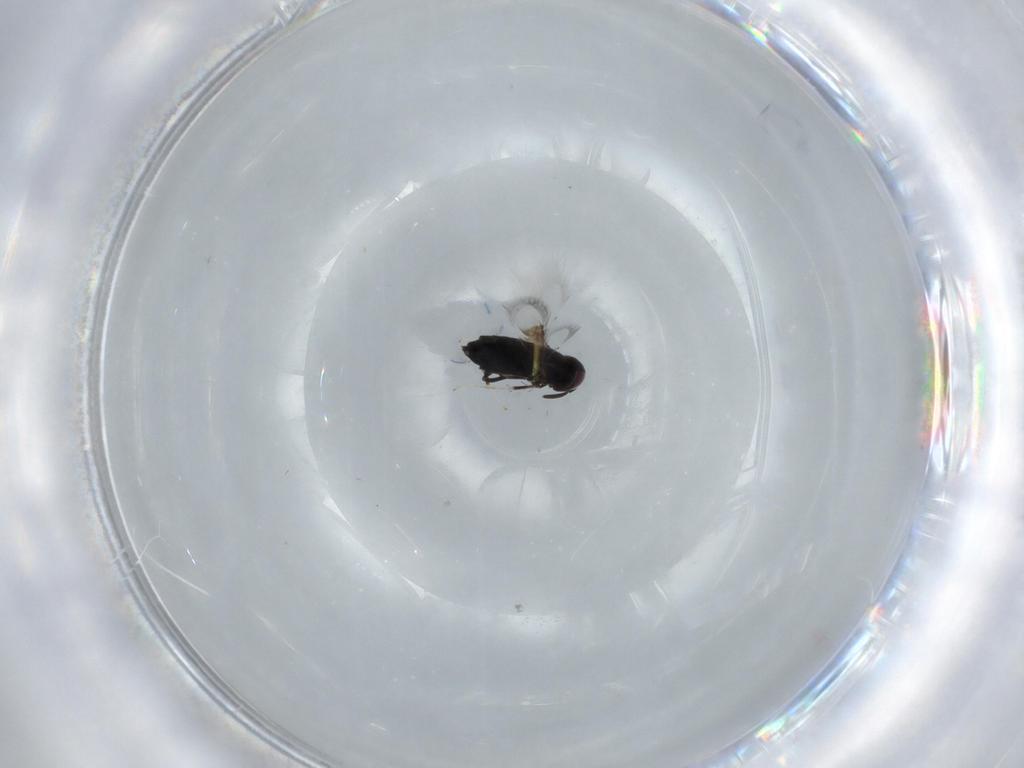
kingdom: Animalia
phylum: Arthropoda
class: Insecta
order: Hymenoptera
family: Signiphoridae
